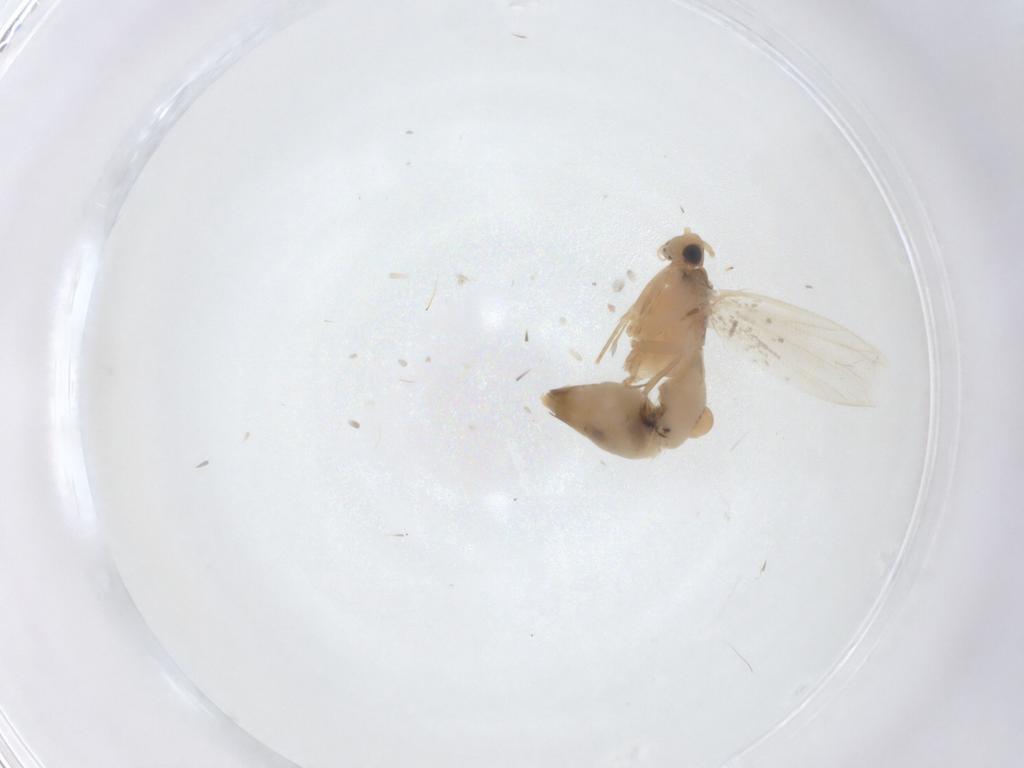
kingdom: Animalia
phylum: Arthropoda
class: Insecta
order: Lepidoptera
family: Tineidae
